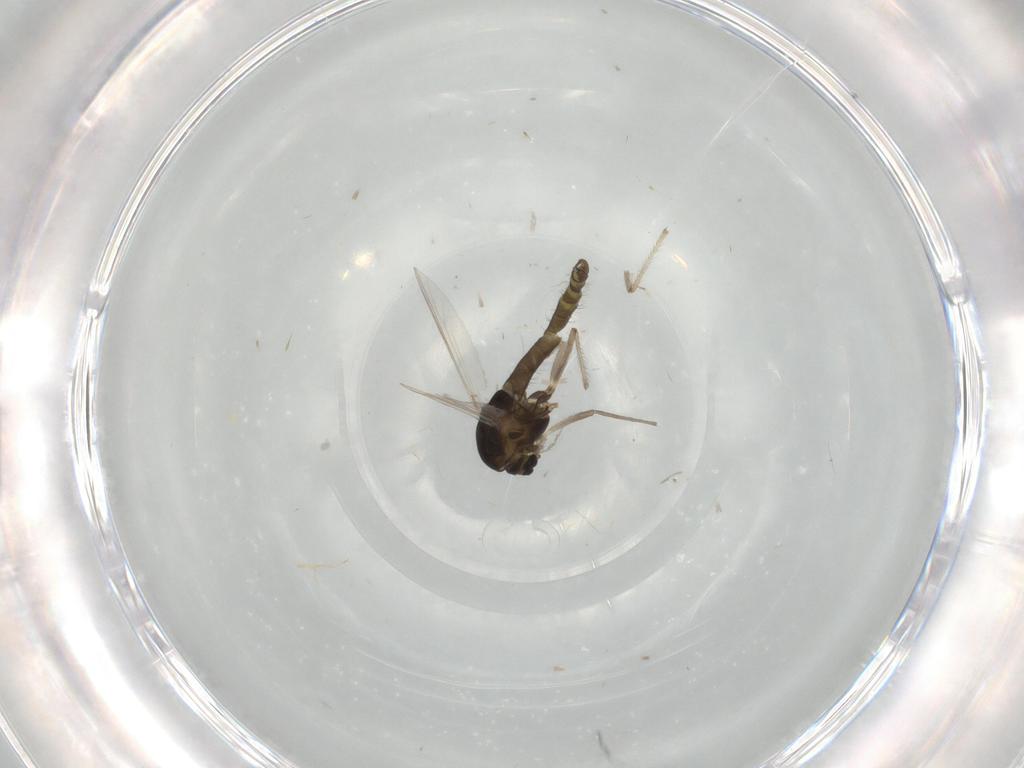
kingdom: Animalia
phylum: Arthropoda
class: Insecta
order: Diptera
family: Chironomidae
